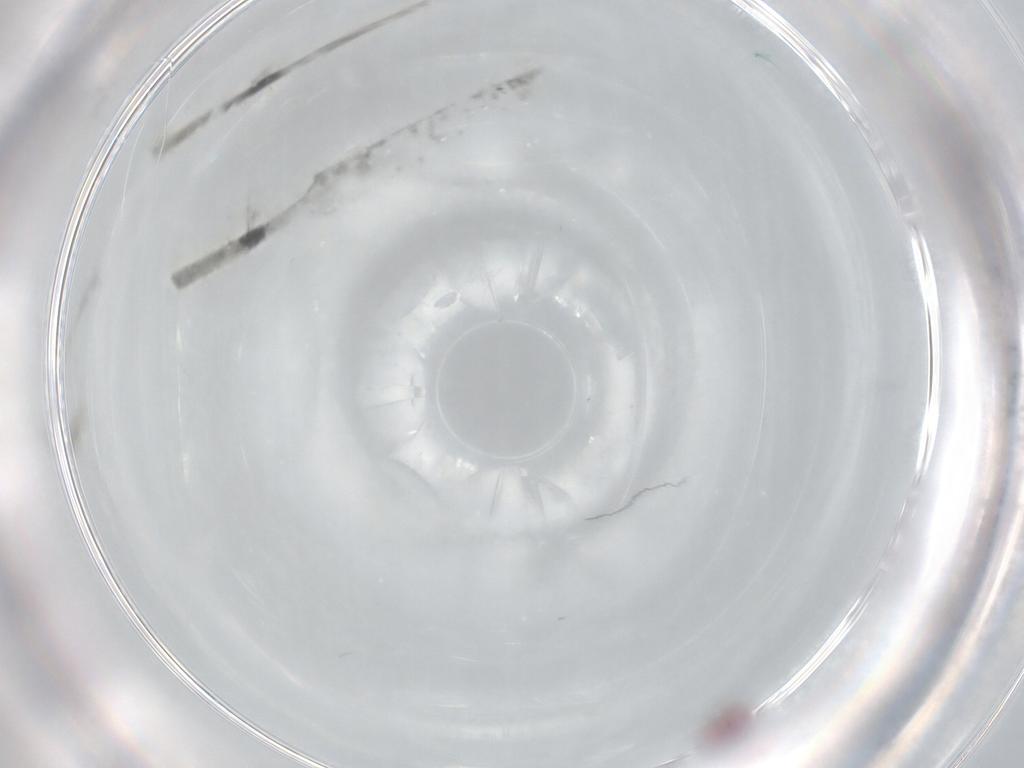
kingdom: Animalia
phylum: Arthropoda
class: Collembola
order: Symphypleona
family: Sminthurididae
